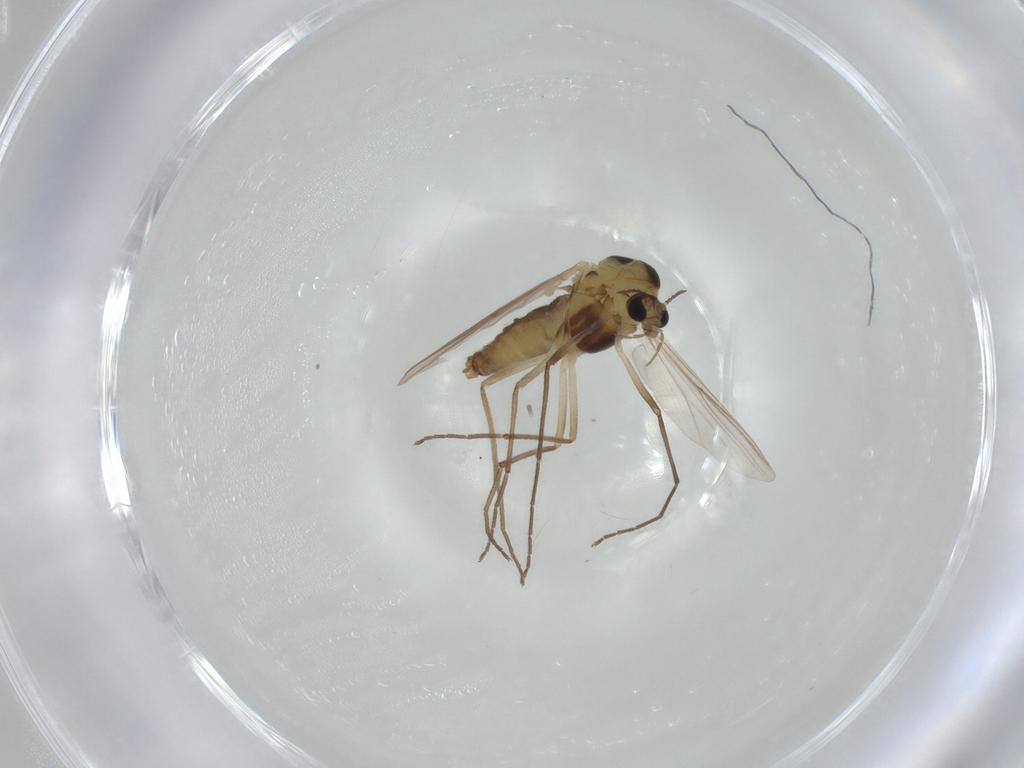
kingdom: Animalia
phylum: Arthropoda
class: Insecta
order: Diptera
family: Chironomidae
